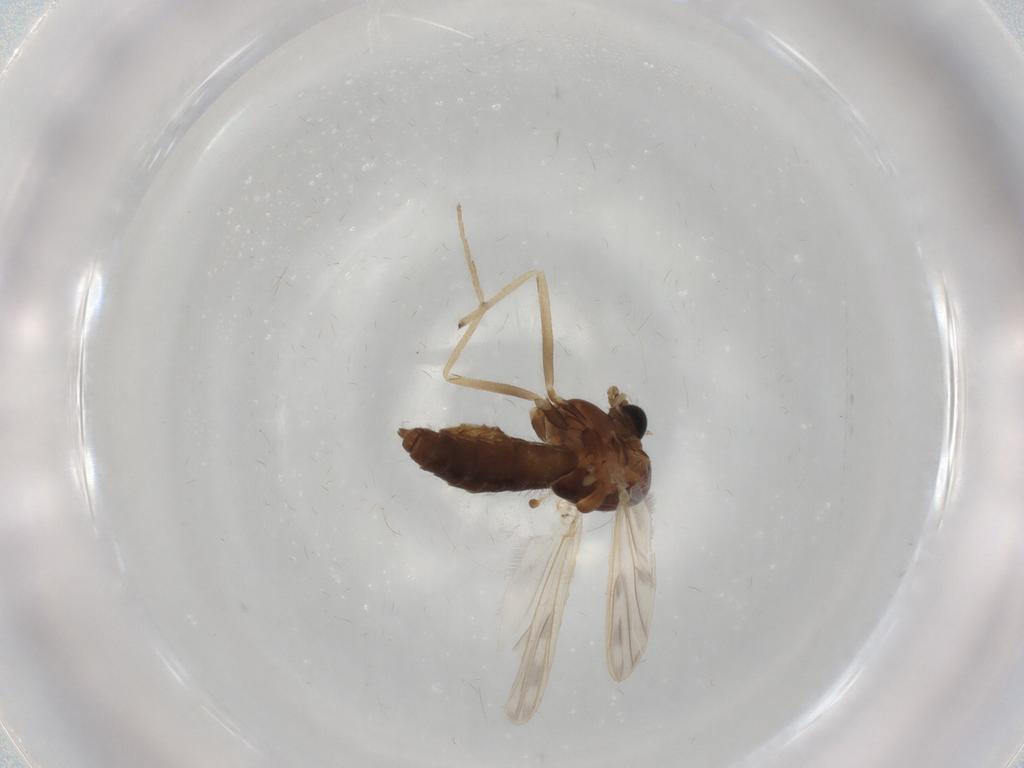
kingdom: Animalia
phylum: Arthropoda
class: Insecta
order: Diptera
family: Chironomidae
